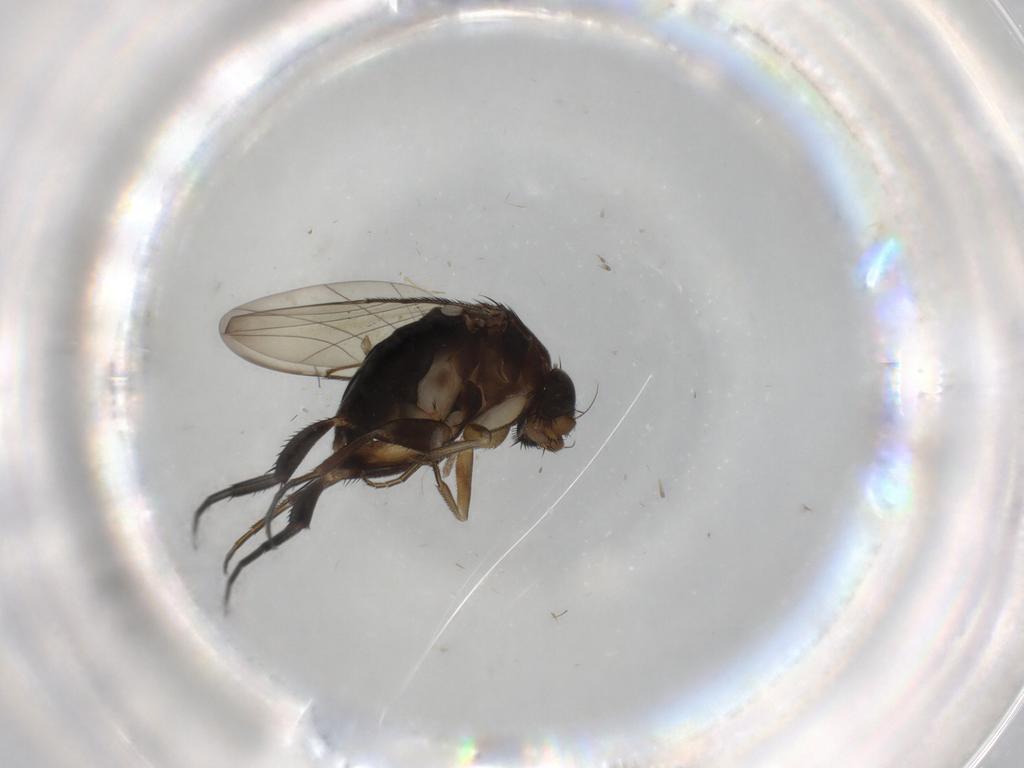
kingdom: Animalia
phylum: Arthropoda
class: Insecta
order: Diptera
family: Phoridae
